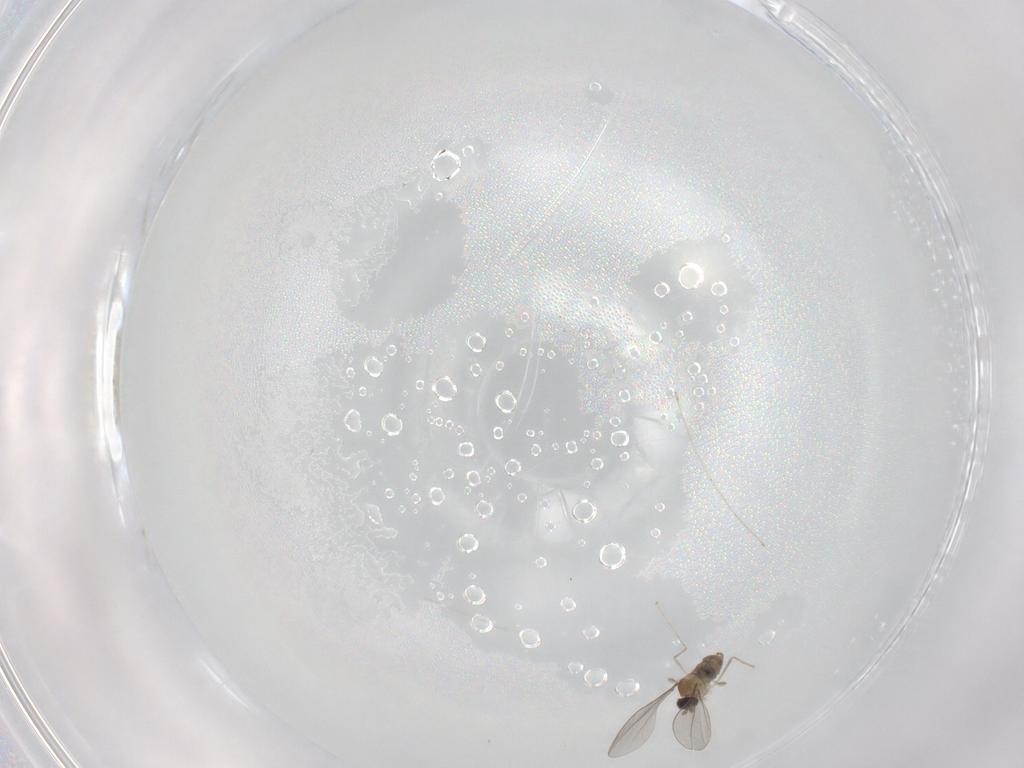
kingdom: Animalia
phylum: Arthropoda
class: Insecta
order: Diptera
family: Cecidomyiidae
